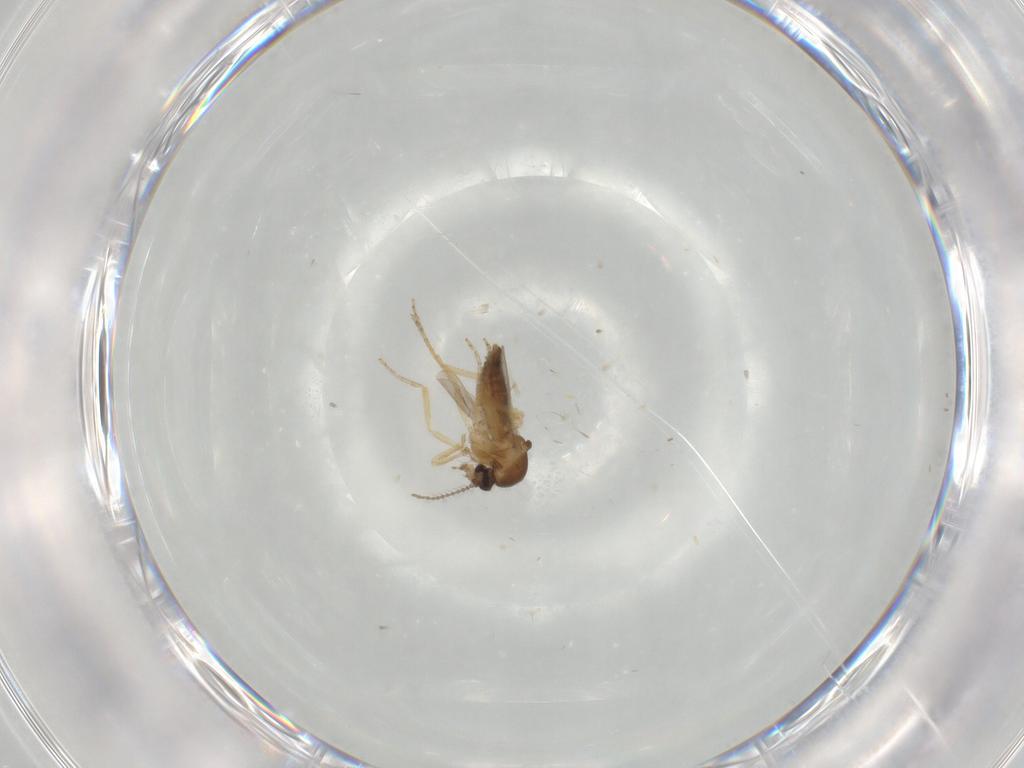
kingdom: Animalia
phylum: Arthropoda
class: Insecta
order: Diptera
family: Ceratopogonidae
